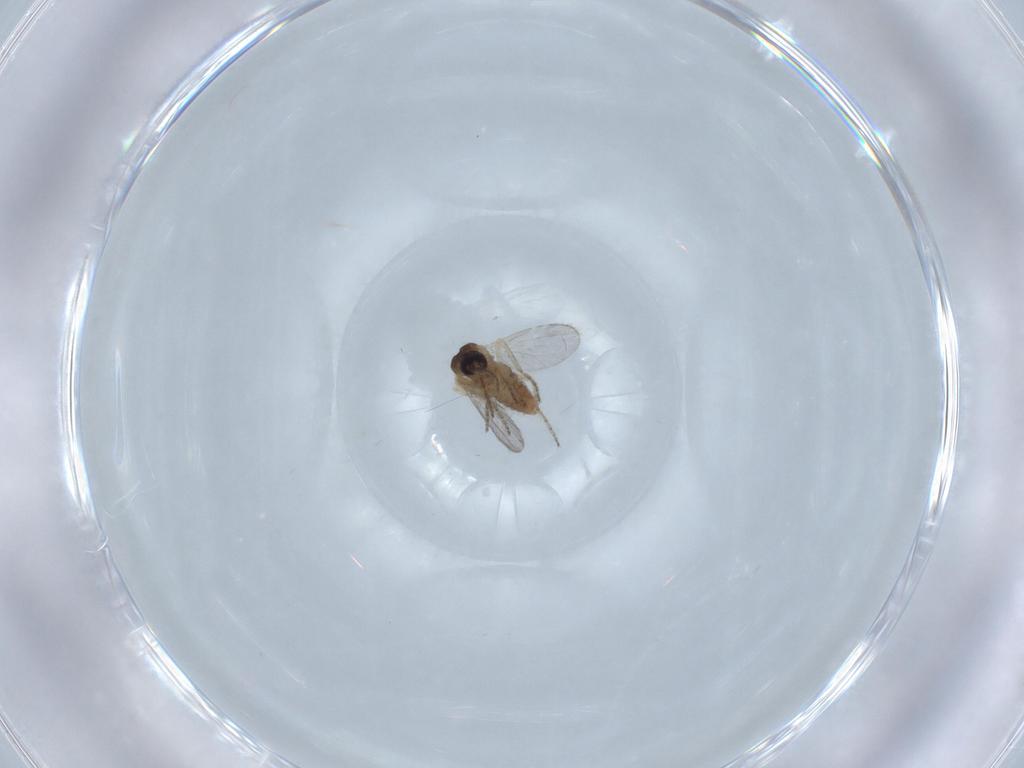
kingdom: Animalia
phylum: Arthropoda
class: Insecta
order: Diptera
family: Ceratopogonidae
